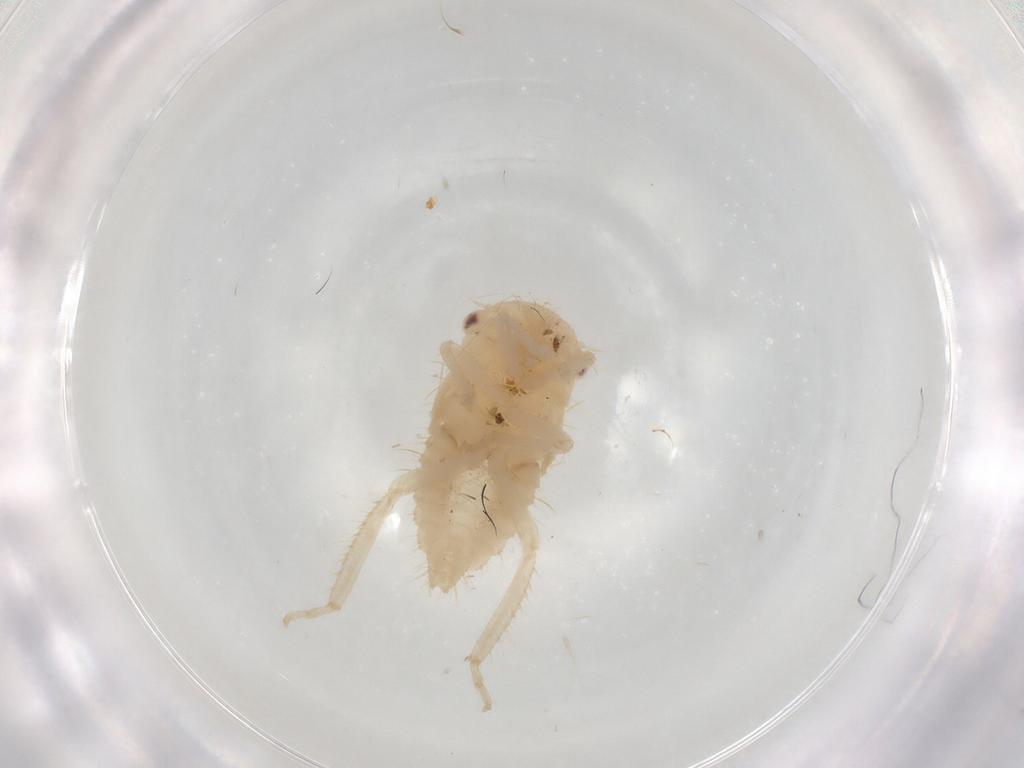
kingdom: Animalia
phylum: Arthropoda
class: Insecta
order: Hemiptera
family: Cicadellidae
